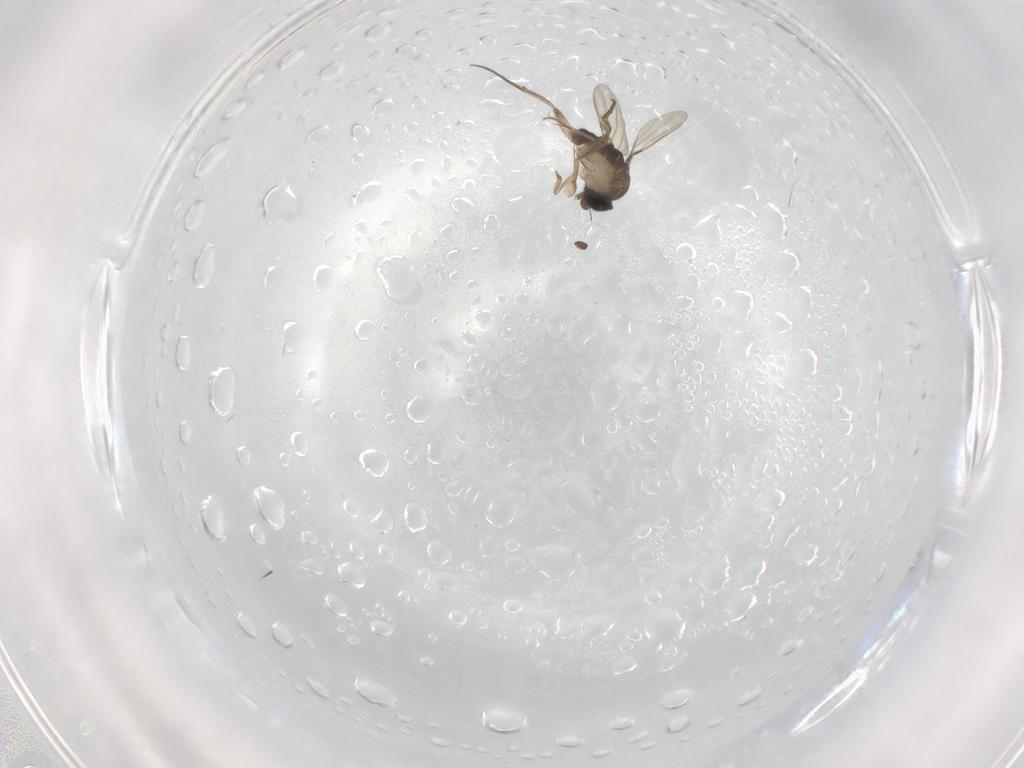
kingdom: Animalia
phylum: Arthropoda
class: Insecta
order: Diptera
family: Phoridae
